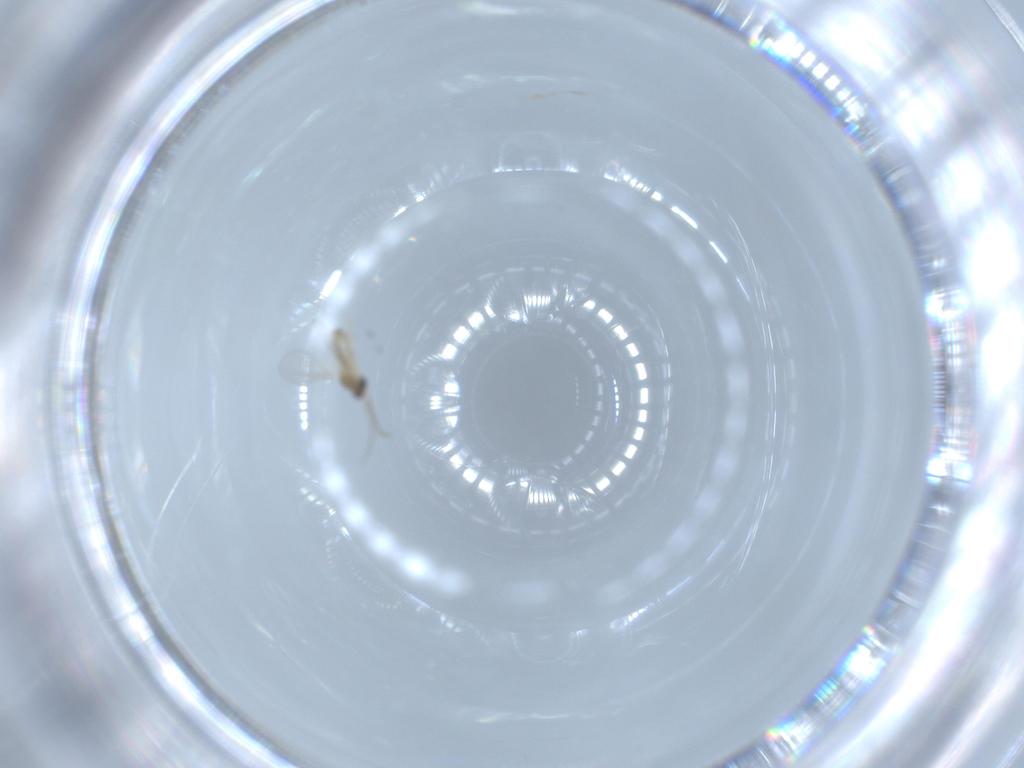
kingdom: Animalia
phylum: Arthropoda
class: Insecta
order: Diptera
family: Cecidomyiidae
